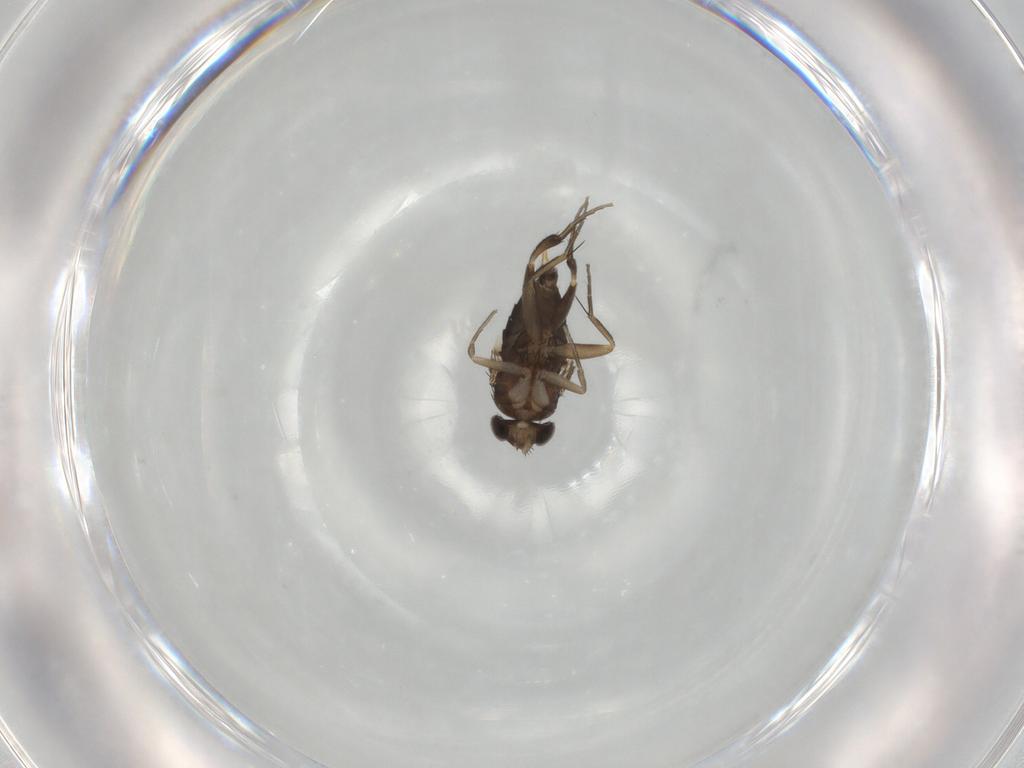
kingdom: Animalia
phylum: Arthropoda
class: Insecta
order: Diptera
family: Phoridae
